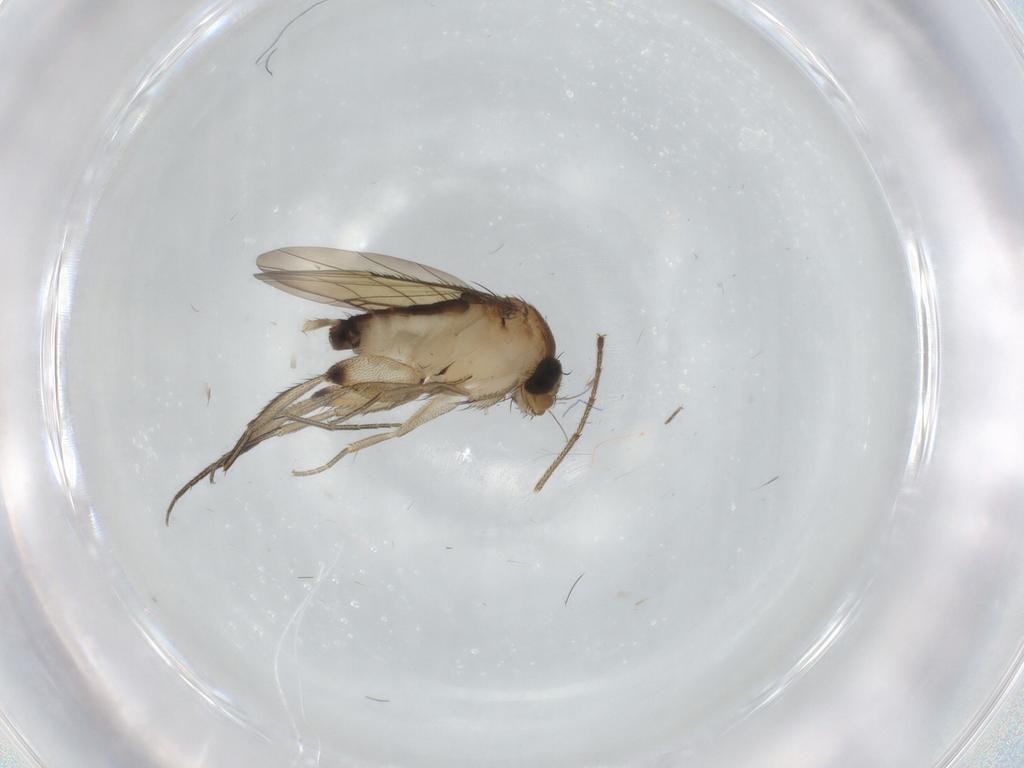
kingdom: Animalia
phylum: Arthropoda
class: Insecta
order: Diptera
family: Phoridae
